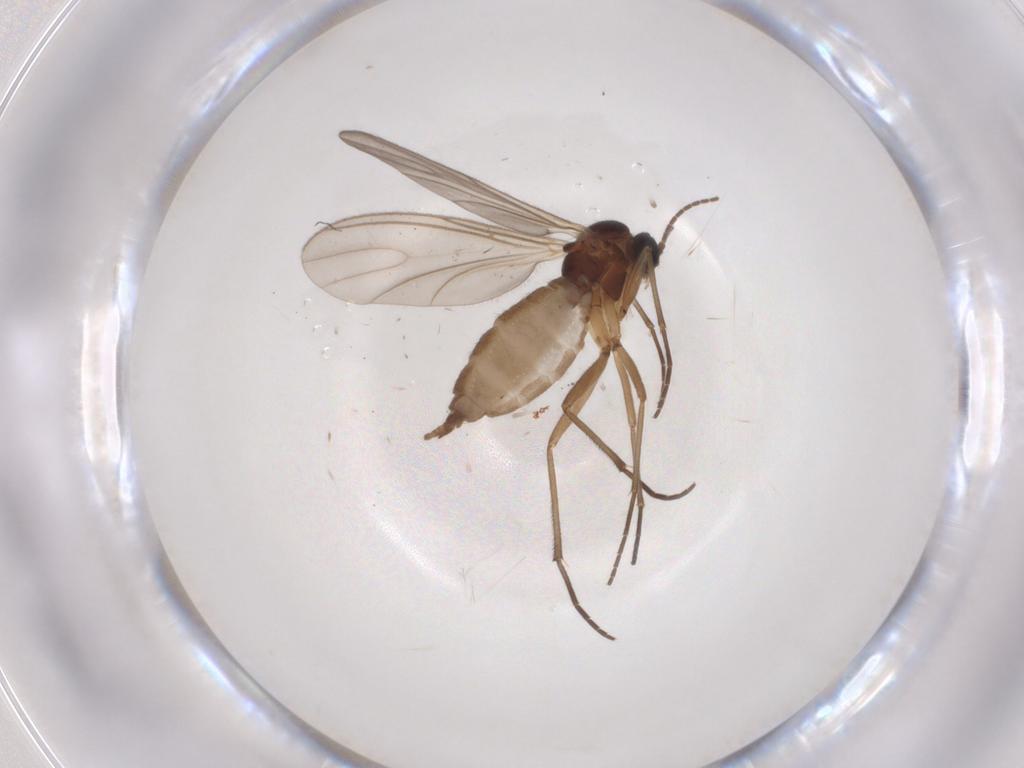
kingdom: Animalia
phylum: Arthropoda
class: Insecta
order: Diptera
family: Sciaridae
